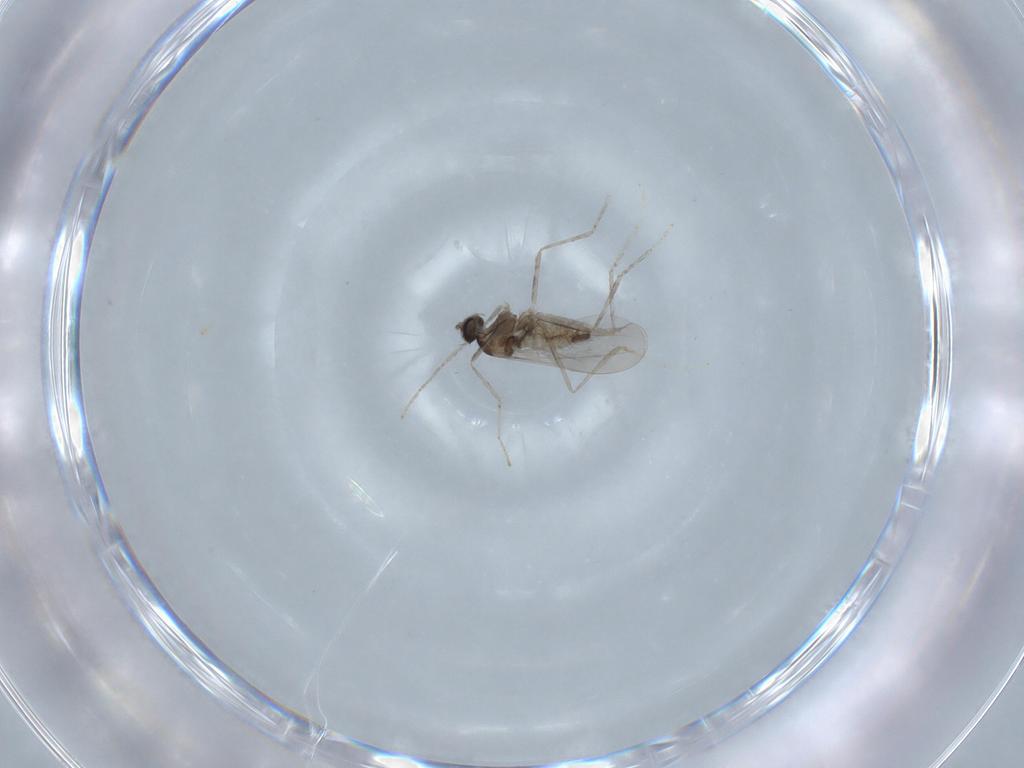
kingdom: Animalia
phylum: Arthropoda
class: Insecta
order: Diptera
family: Cecidomyiidae
